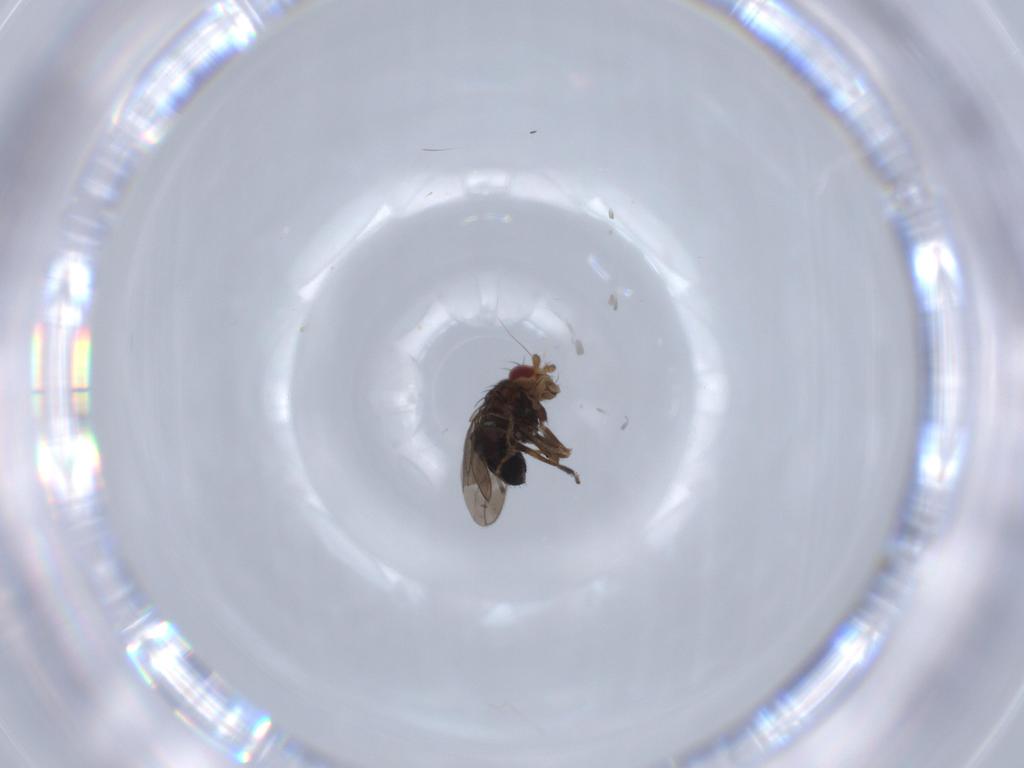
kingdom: Animalia
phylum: Arthropoda
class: Insecta
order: Diptera
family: Sphaeroceridae
